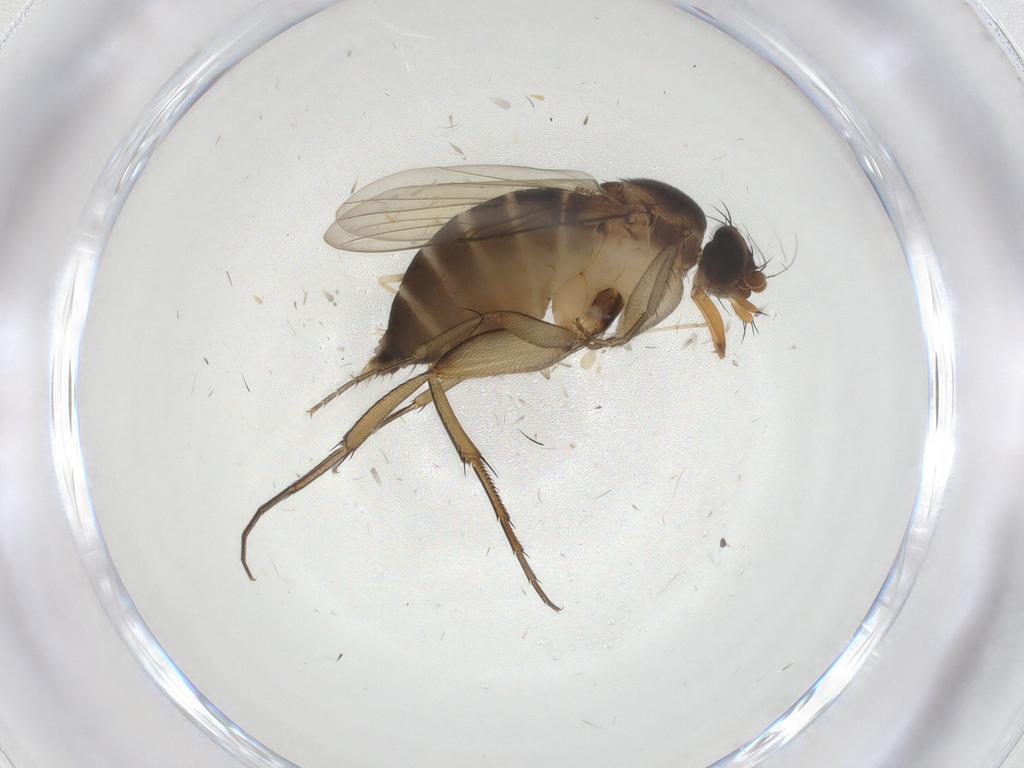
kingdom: Animalia
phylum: Arthropoda
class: Insecta
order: Diptera
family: Phoridae
